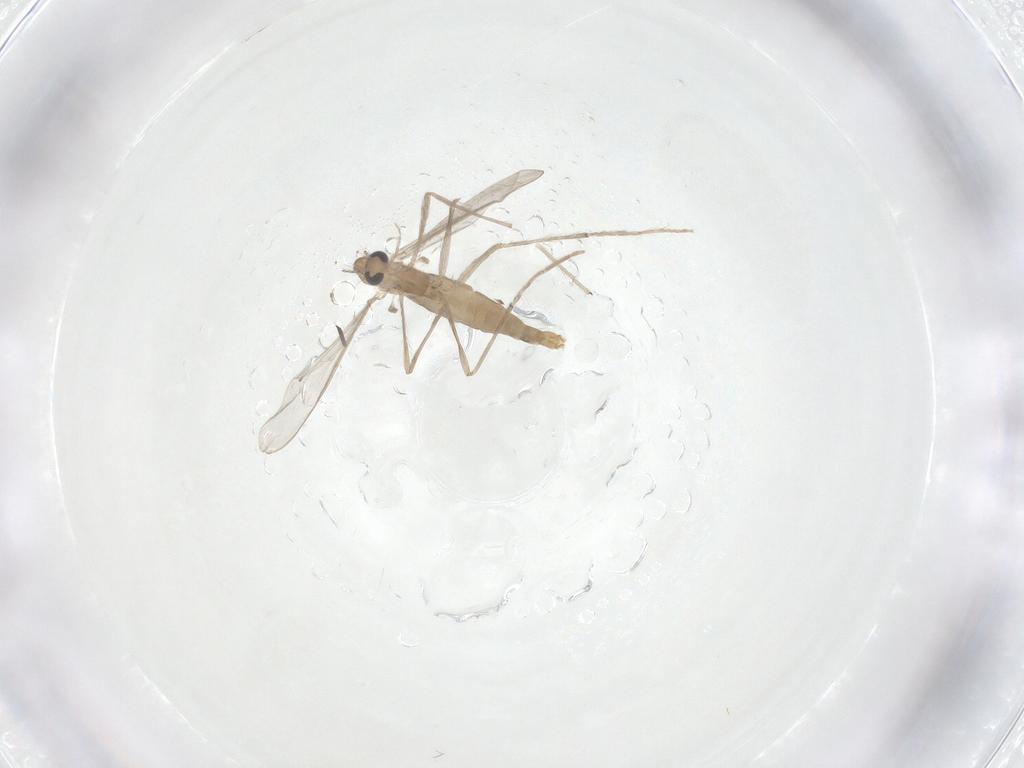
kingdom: Animalia
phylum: Arthropoda
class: Insecta
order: Diptera
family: Chironomidae
